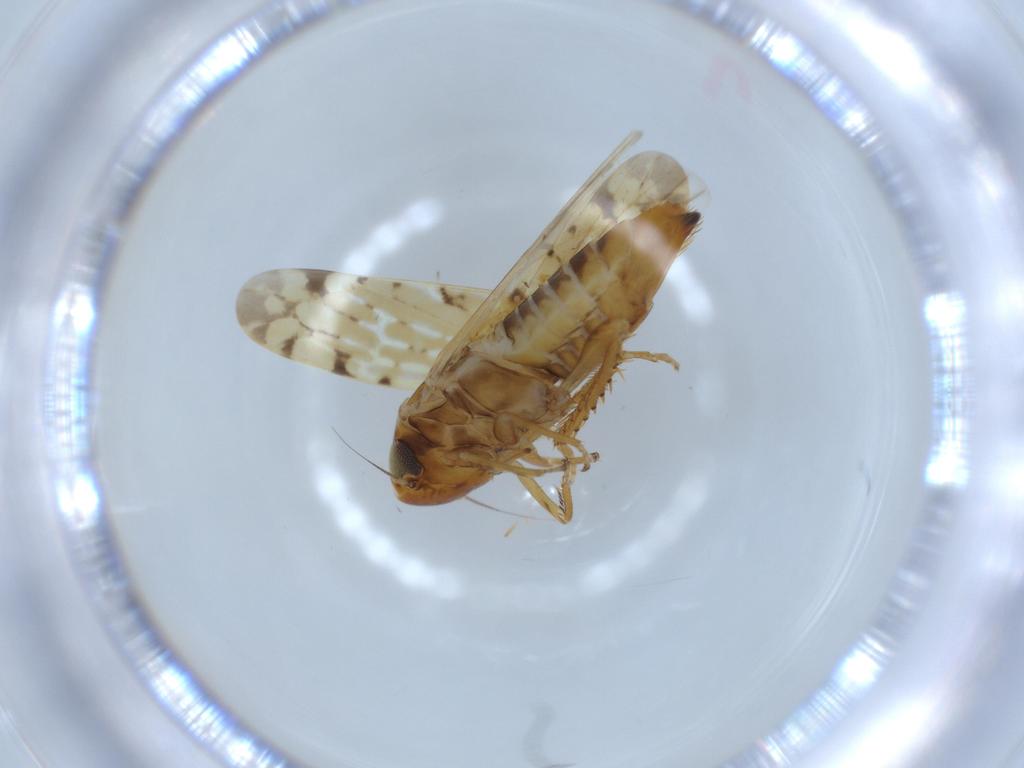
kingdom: Animalia
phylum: Arthropoda
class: Insecta
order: Hemiptera
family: Cicadellidae
